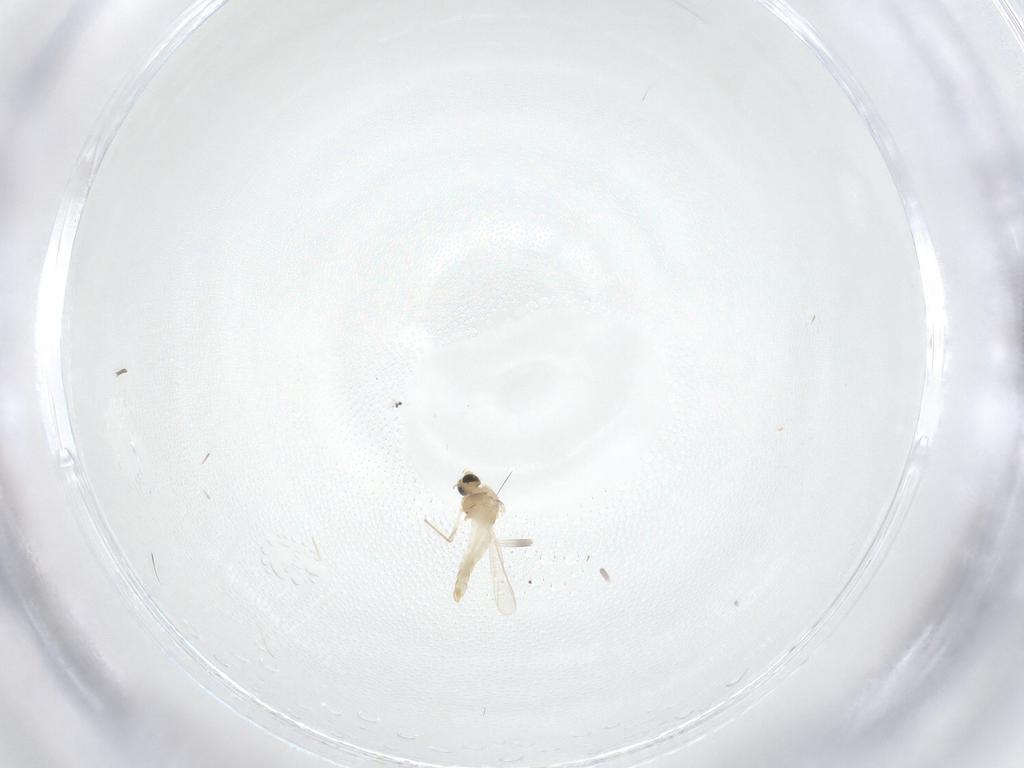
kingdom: Animalia
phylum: Arthropoda
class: Insecta
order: Diptera
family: Chironomidae
